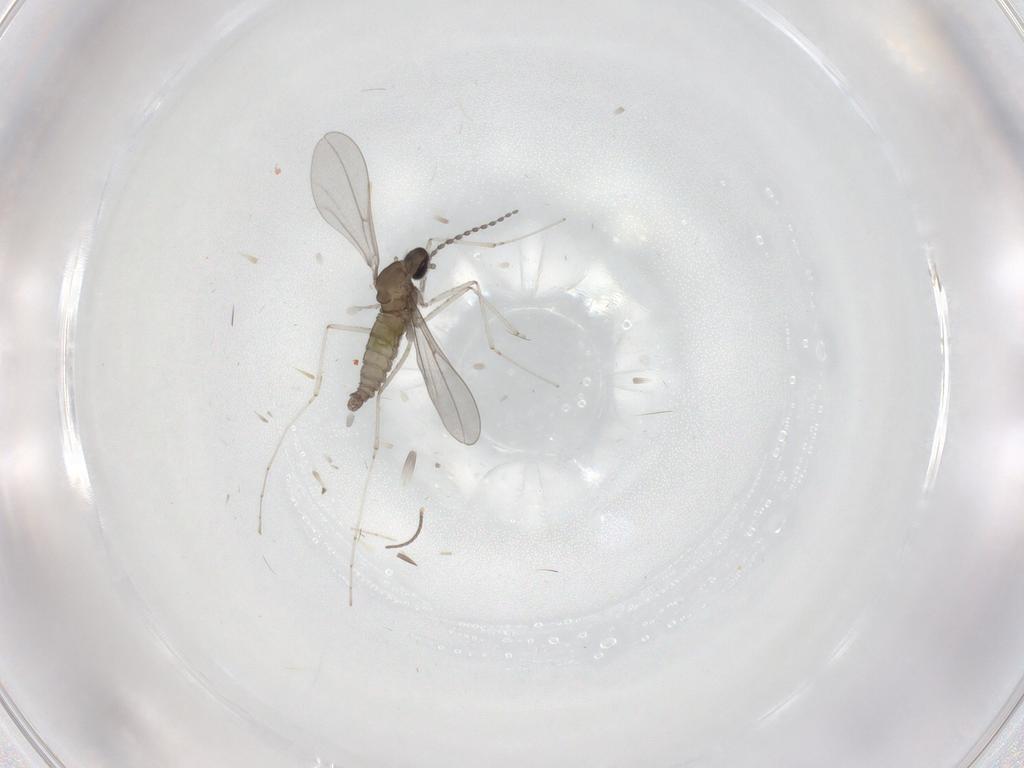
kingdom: Animalia
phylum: Arthropoda
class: Insecta
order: Diptera
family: Cecidomyiidae
